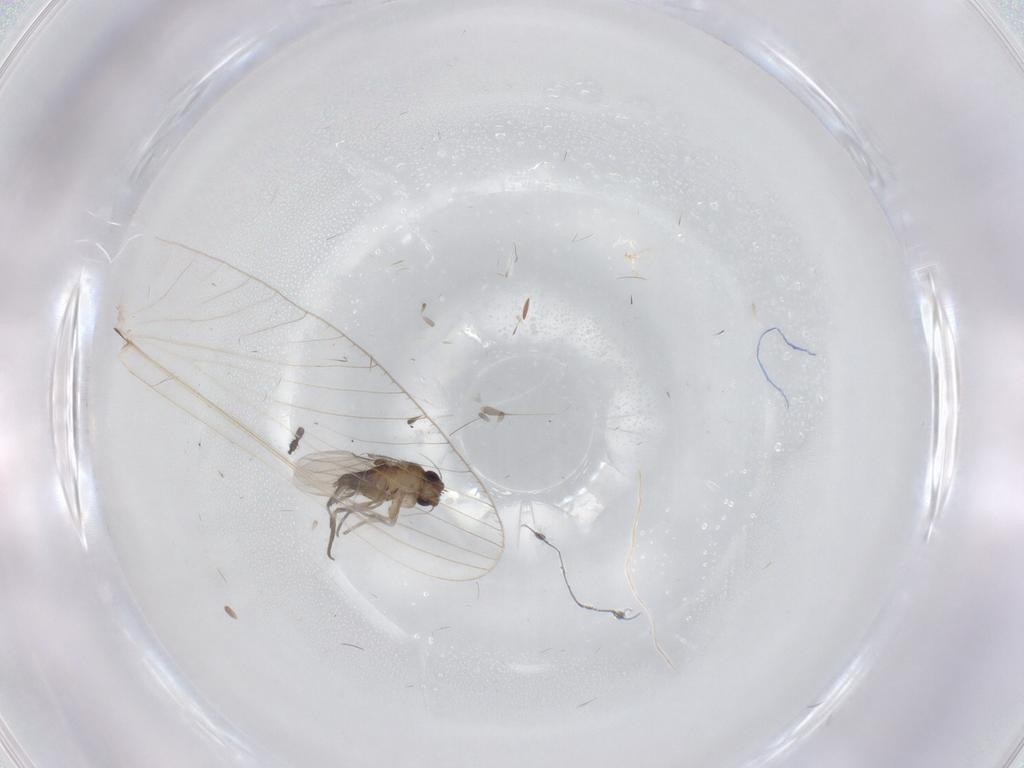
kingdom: Animalia
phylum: Arthropoda
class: Insecta
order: Diptera
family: Mycetophilidae
